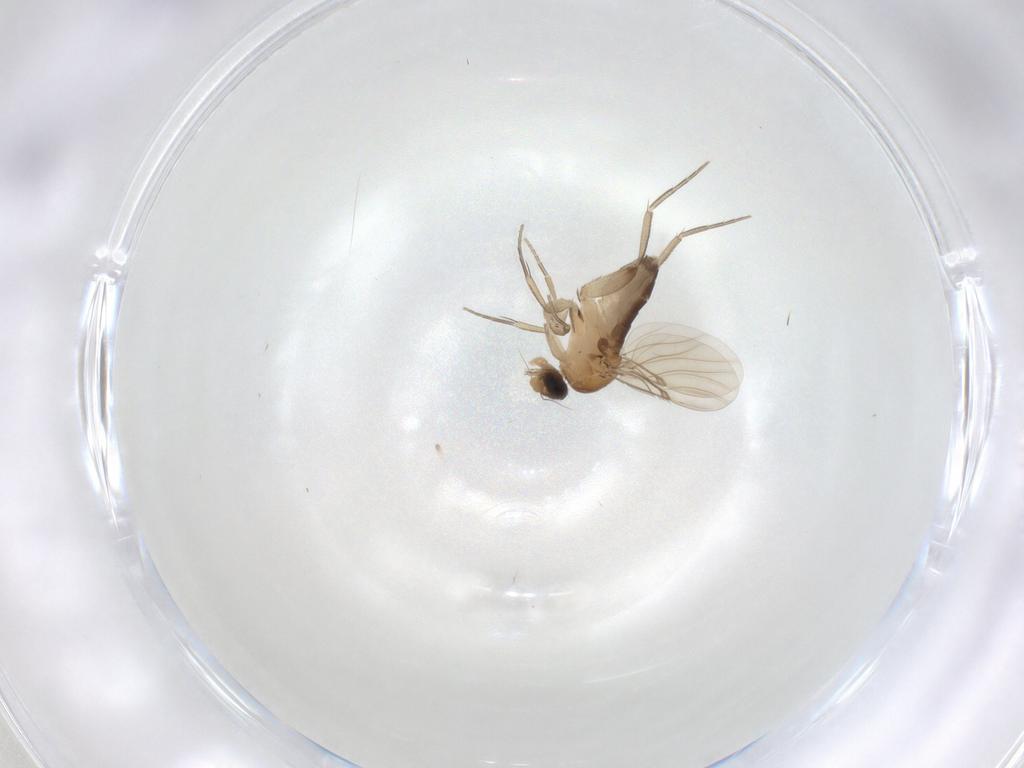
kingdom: Animalia
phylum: Arthropoda
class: Insecta
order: Diptera
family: Phoridae
